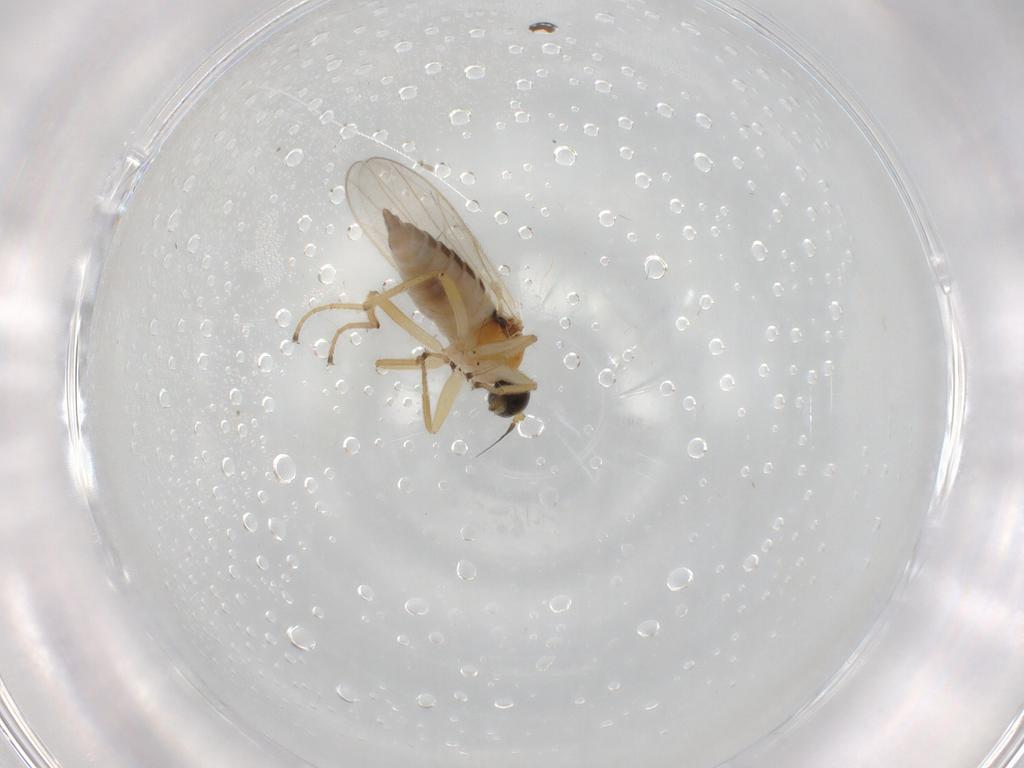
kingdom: Animalia
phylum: Arthropoda
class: Insecta
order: Diptera
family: Hybotidae
